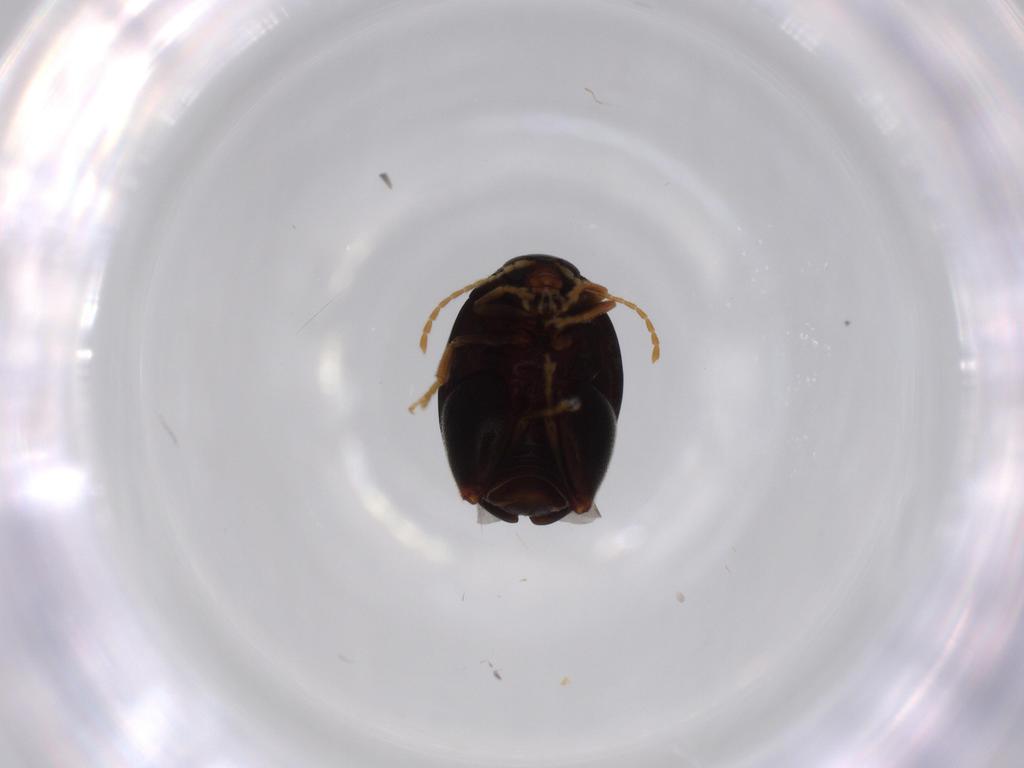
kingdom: Animalia
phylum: Arthropoda
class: Insecta
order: Coleoptera
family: Chrysomelidae
